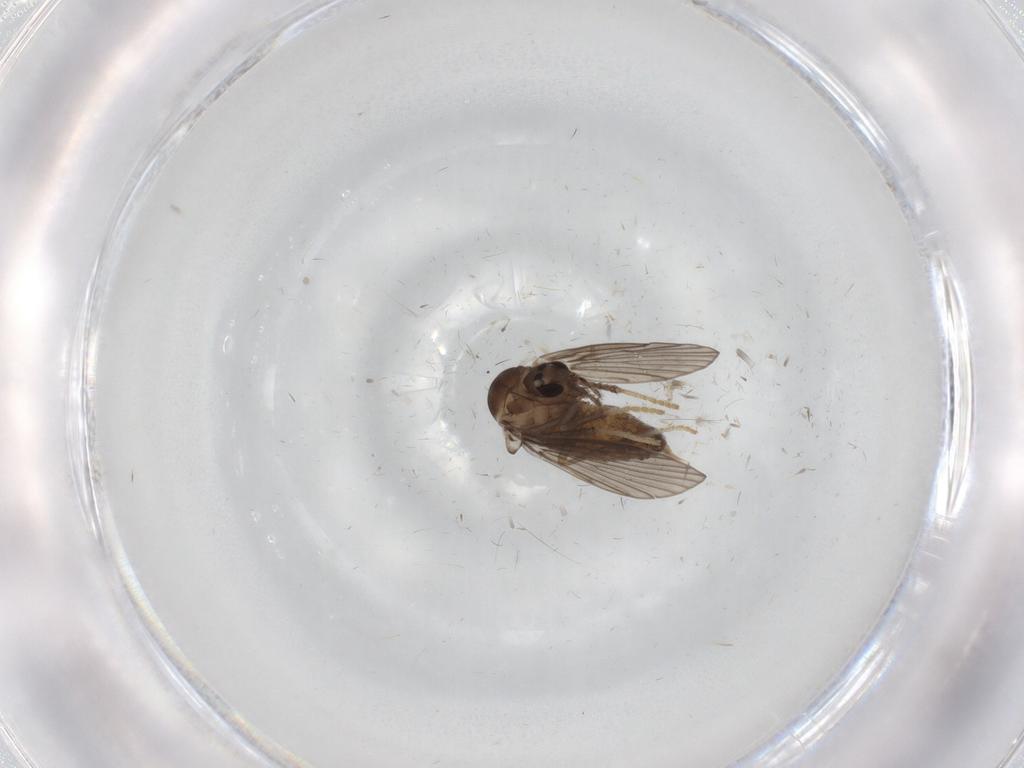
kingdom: Animalia
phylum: Arthropoda
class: Insecta
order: Diptera
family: Psychodidae
